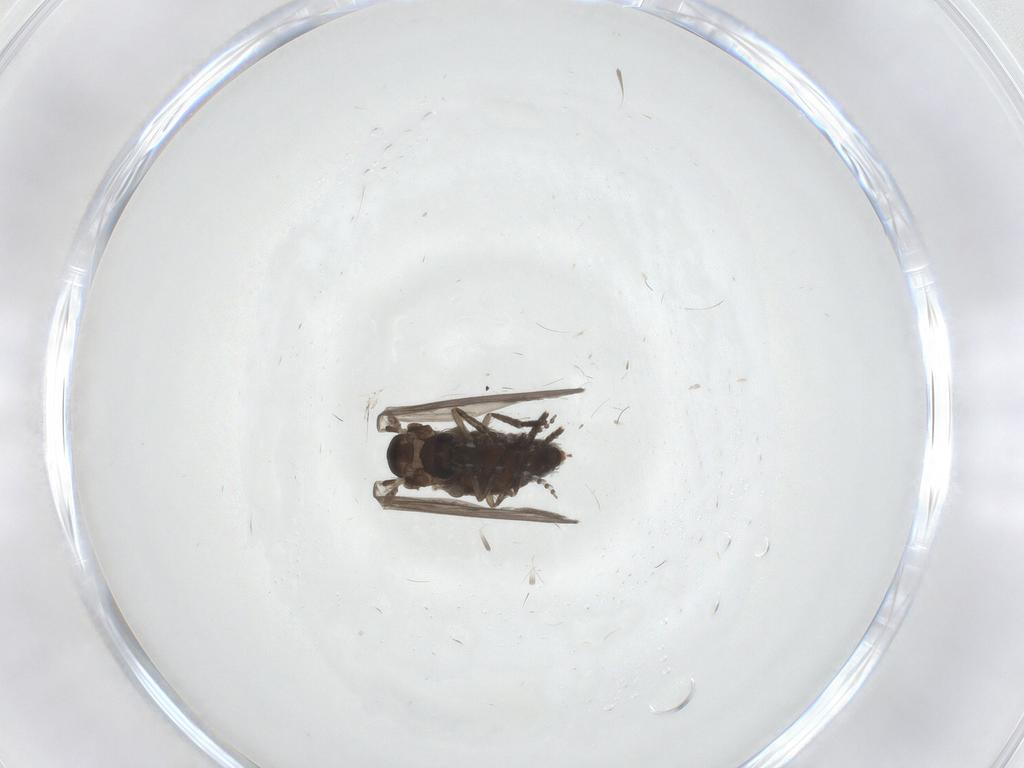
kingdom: Animalia
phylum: Arthropoda
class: Insecta
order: Diptera
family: Psychodidae
